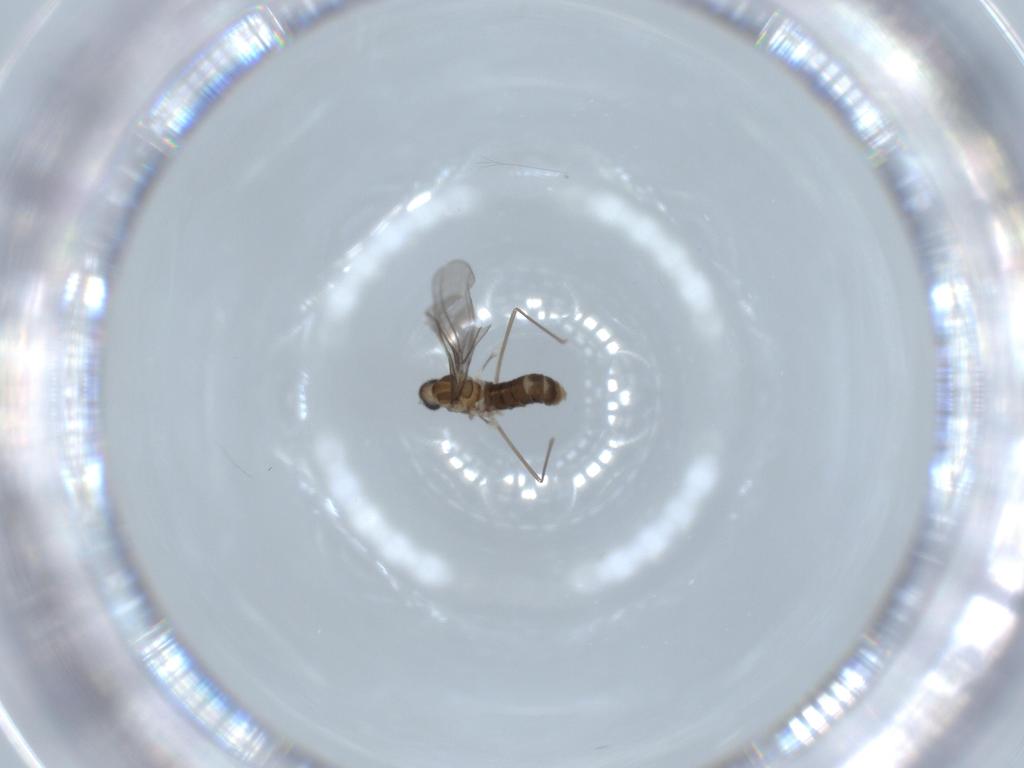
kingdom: Animalia
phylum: Arthropoda
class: Insecta
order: Diptera
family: Cecidomyiidae
